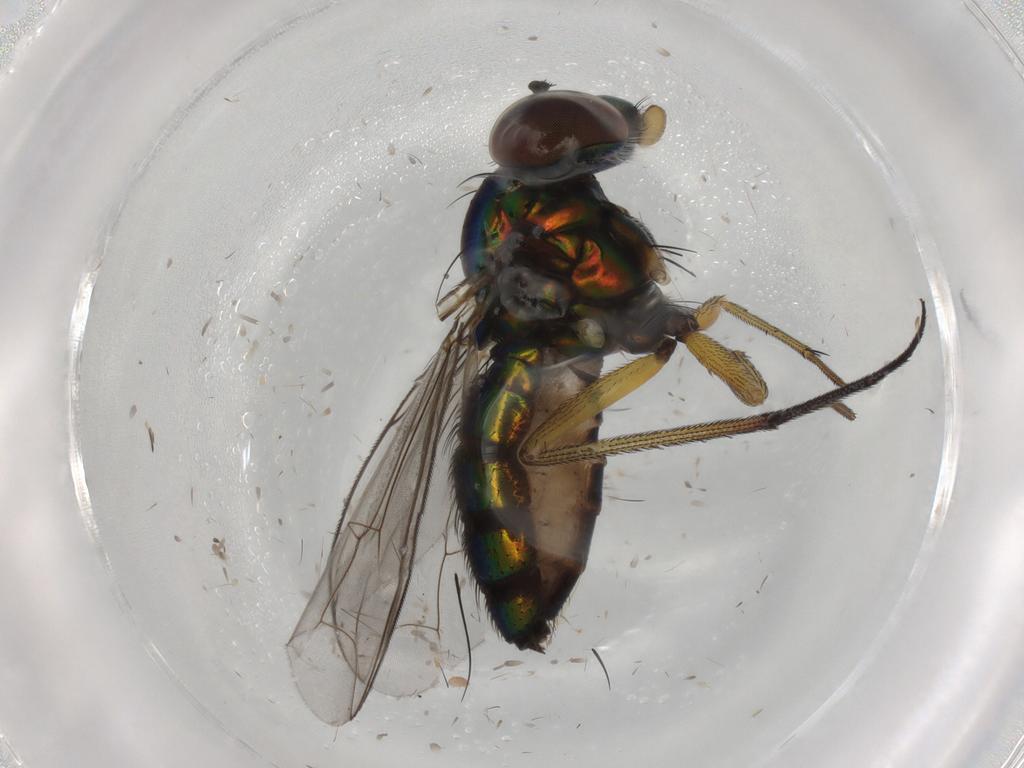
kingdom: Animalia
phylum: Arthropoda
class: Insecta
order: Diptera
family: Dolichopodidae
